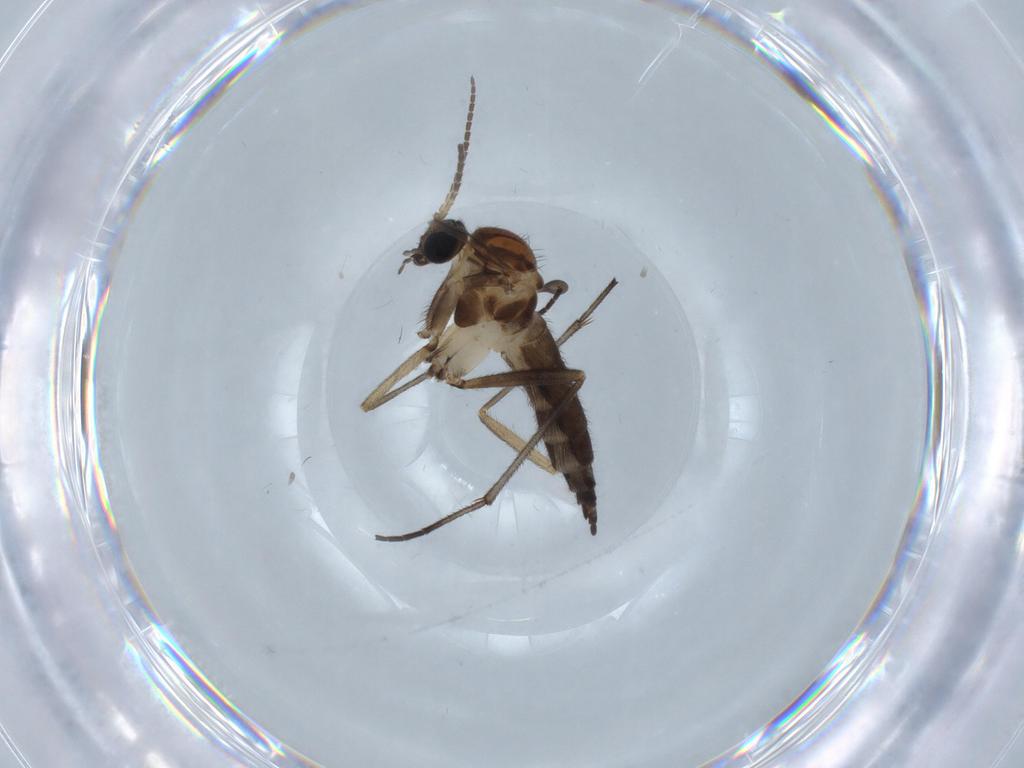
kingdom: Animalia
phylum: Arthropoda
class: Insecta
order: Diptera
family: Sciaridae
